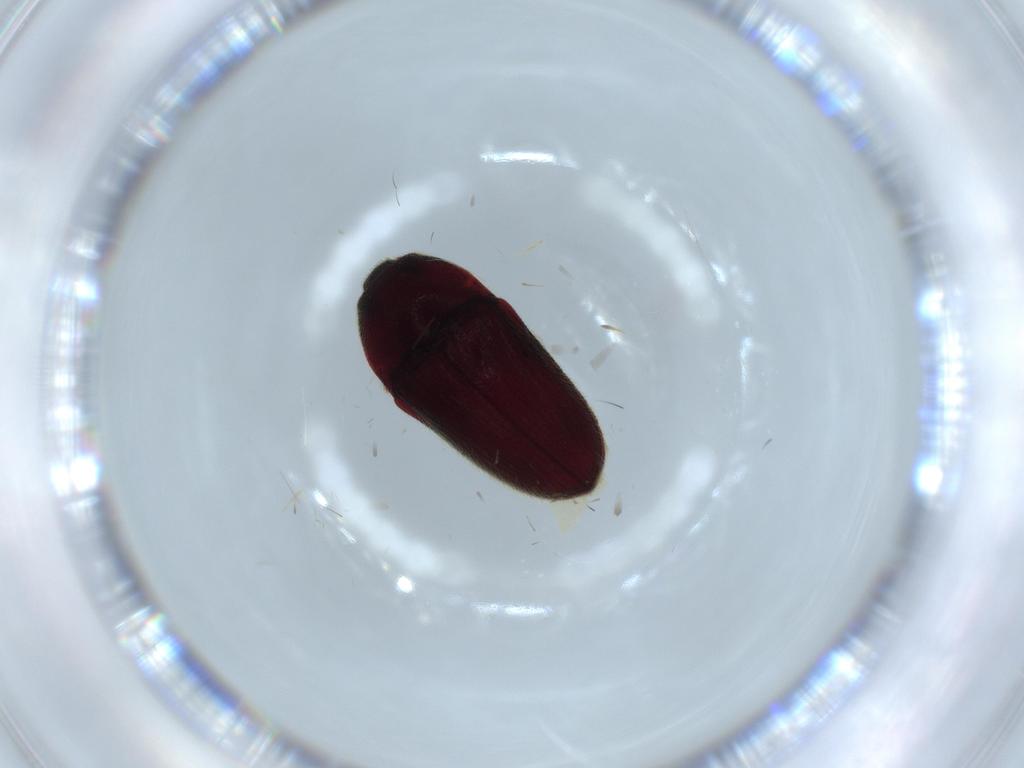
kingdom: Animalia
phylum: Arthropoda
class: Insecta
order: Coleoptera
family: Throscidae
